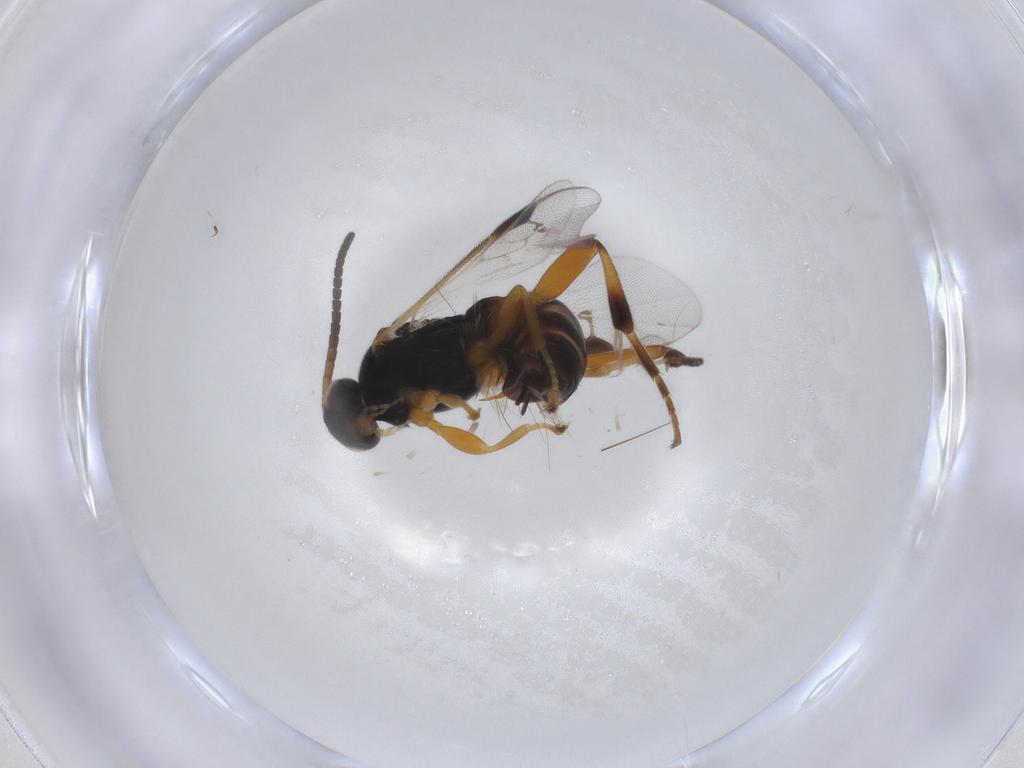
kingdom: Animalia
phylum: Arthropoda
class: Insecta
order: Hymenoptera
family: Braconidae
